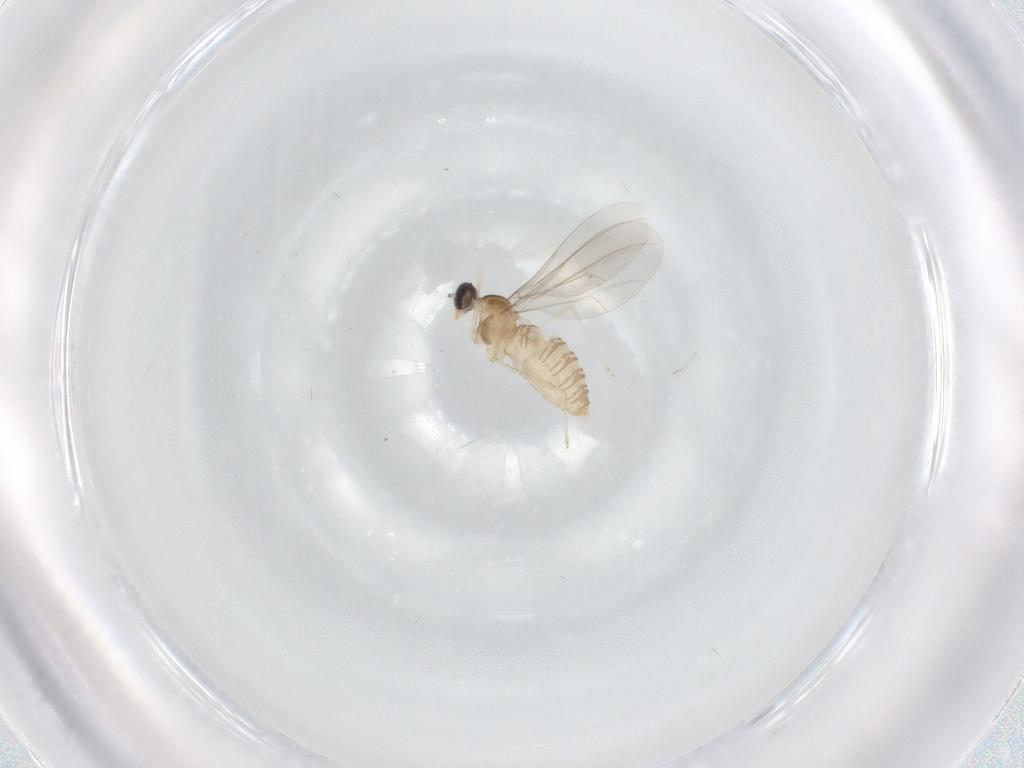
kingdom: Animalia
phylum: Arthropoda
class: Insecta
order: Diptera
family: Cecidomyiidae
